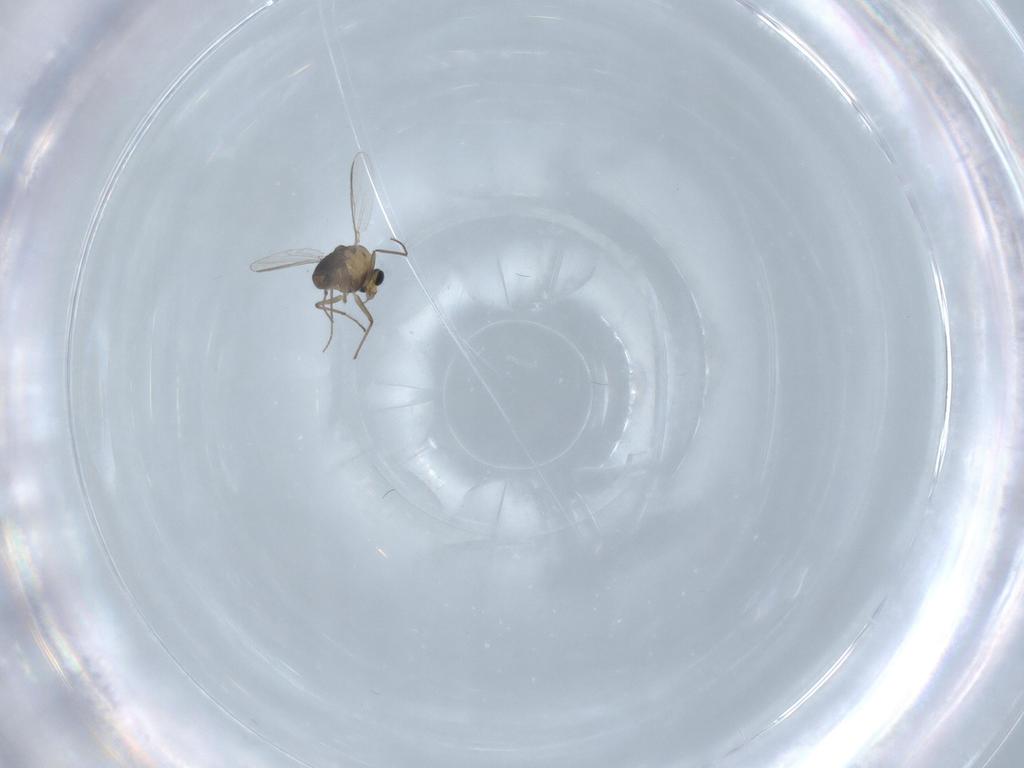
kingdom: Animalia
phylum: Arthropoda
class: Insecta
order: Diptera
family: Chironomidae
